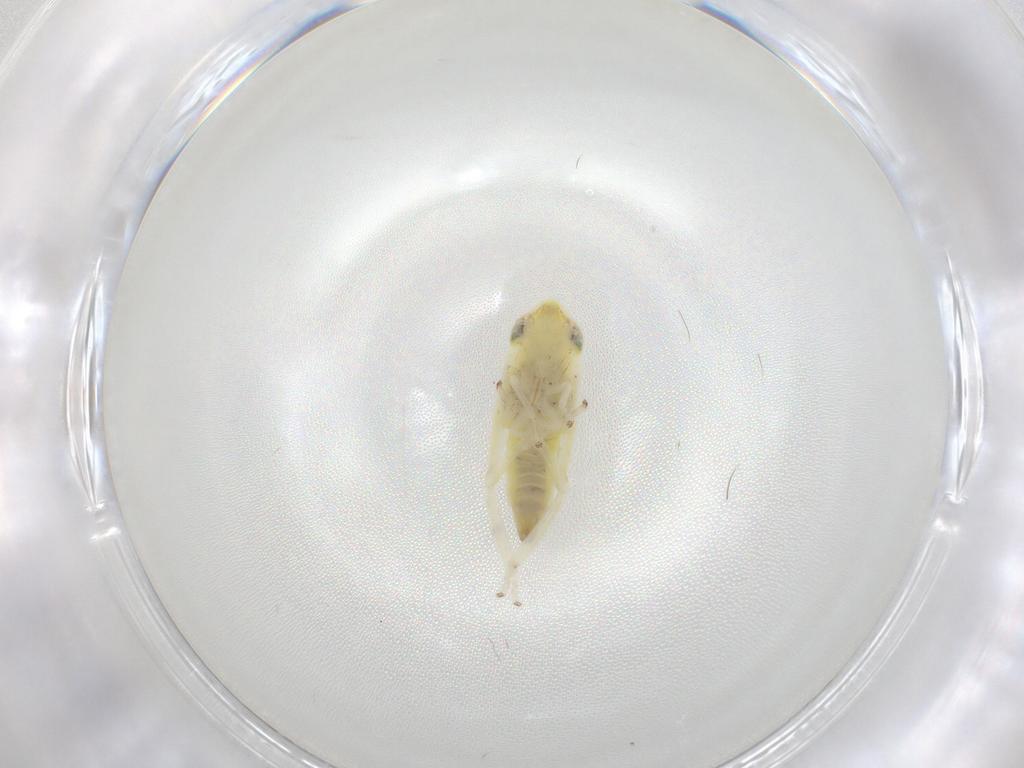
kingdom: Animalia
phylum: Arthropoda
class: Insecta
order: Hemiptera
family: Cicadellidae
